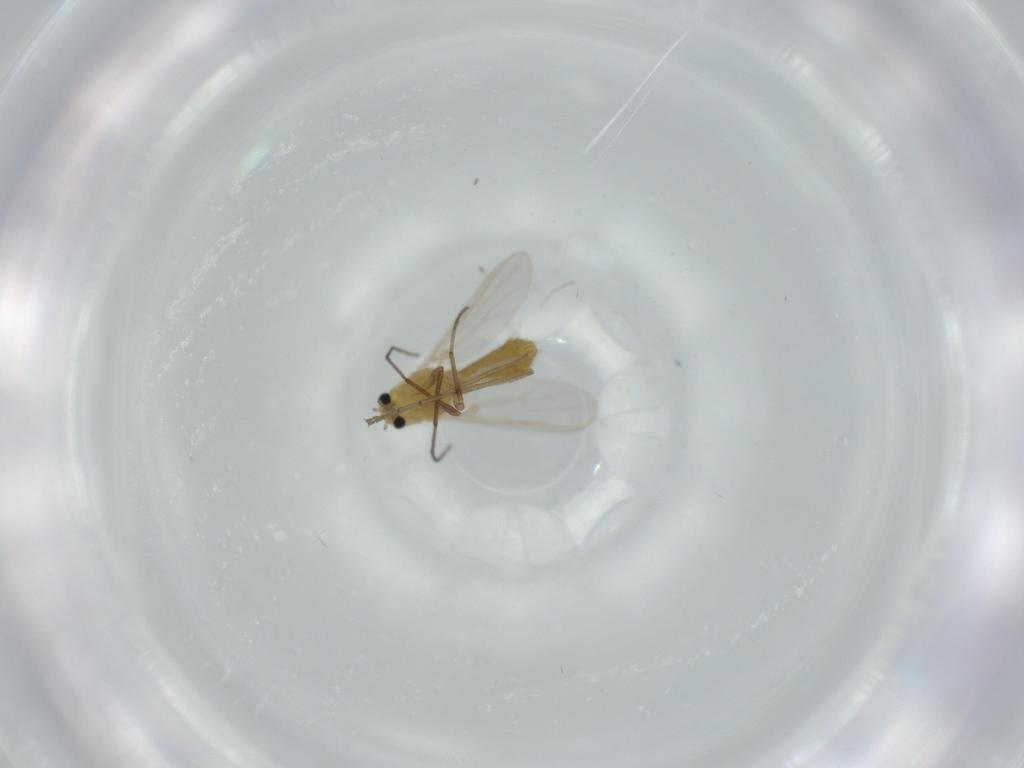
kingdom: Animalia
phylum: Arthropoda
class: Insecta
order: Diptera
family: Chironomidae
